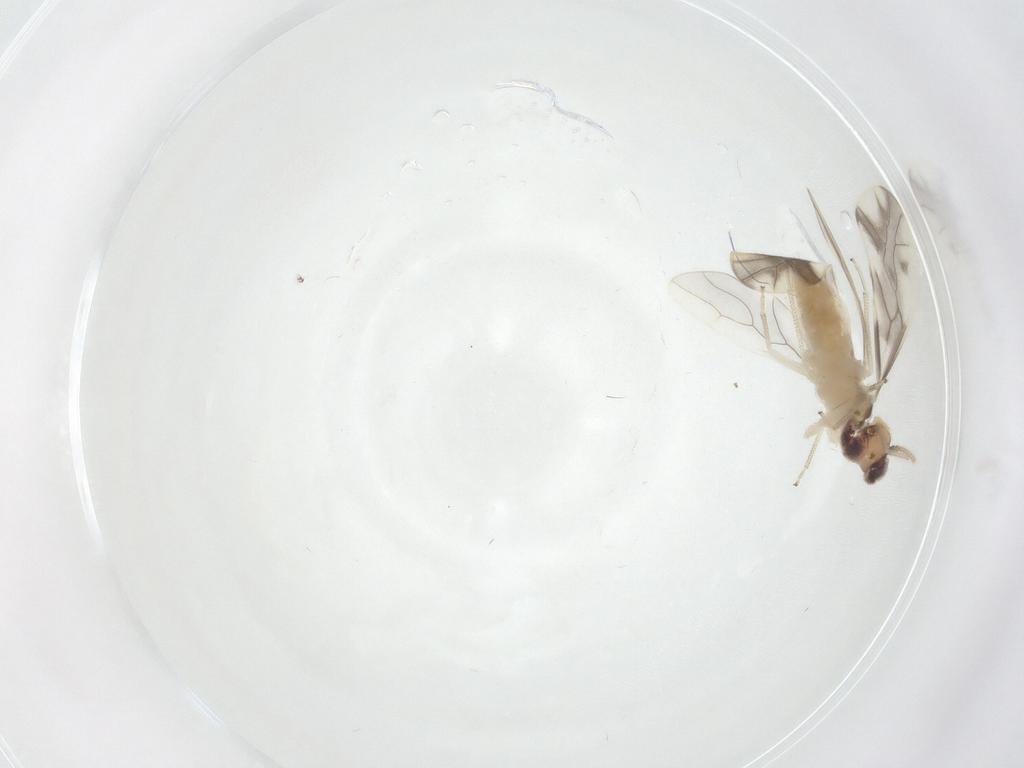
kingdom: Animalia
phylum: Arthropoda
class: Insecta
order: Psocodea
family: Caeciliusidae
